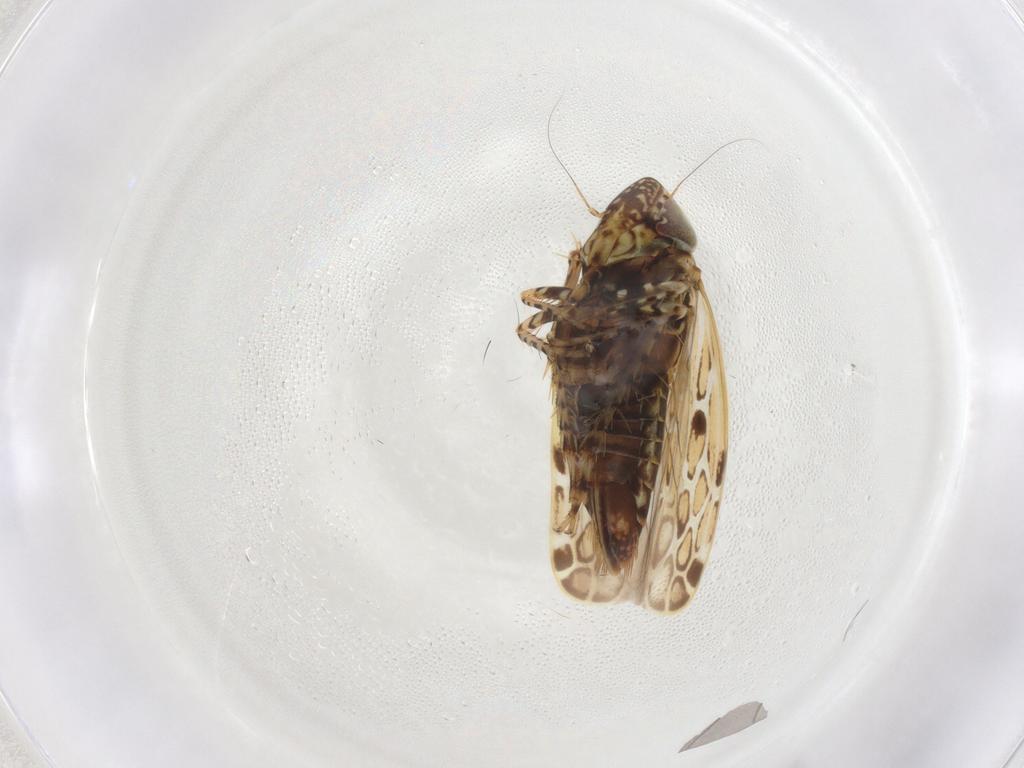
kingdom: Animalia
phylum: Arthropoda
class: Insecta
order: Hemiptera
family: Cicadellidae
